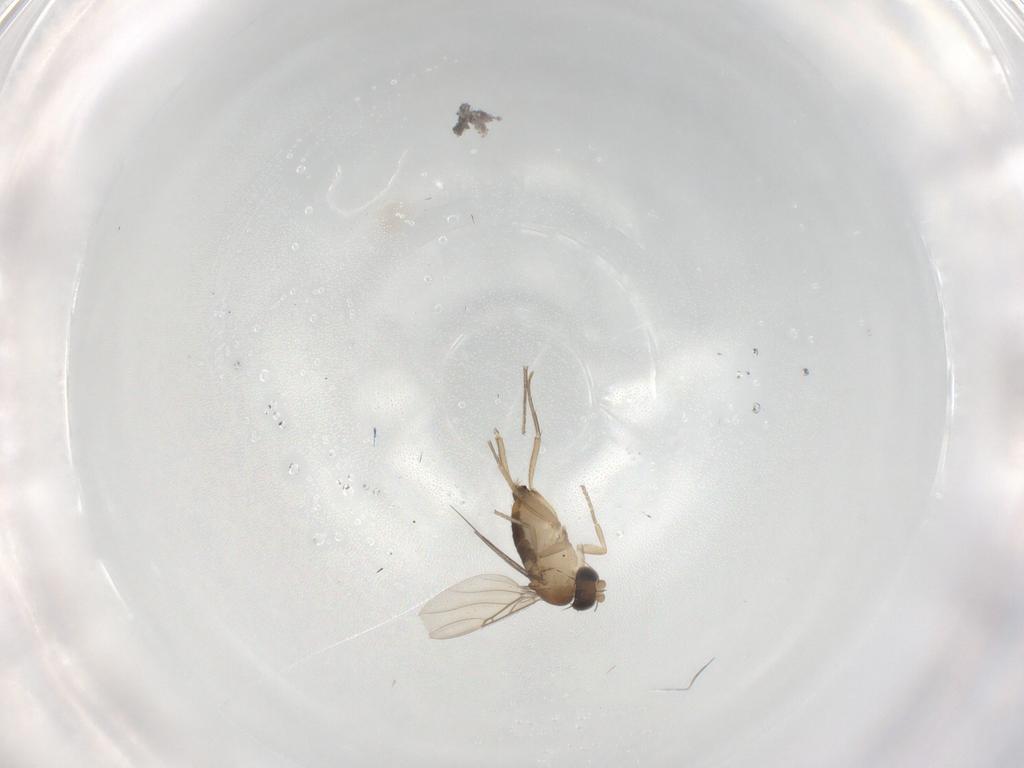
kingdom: Animalia
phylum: Arthropoda
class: Insecta
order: Diptera
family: Phoridae
